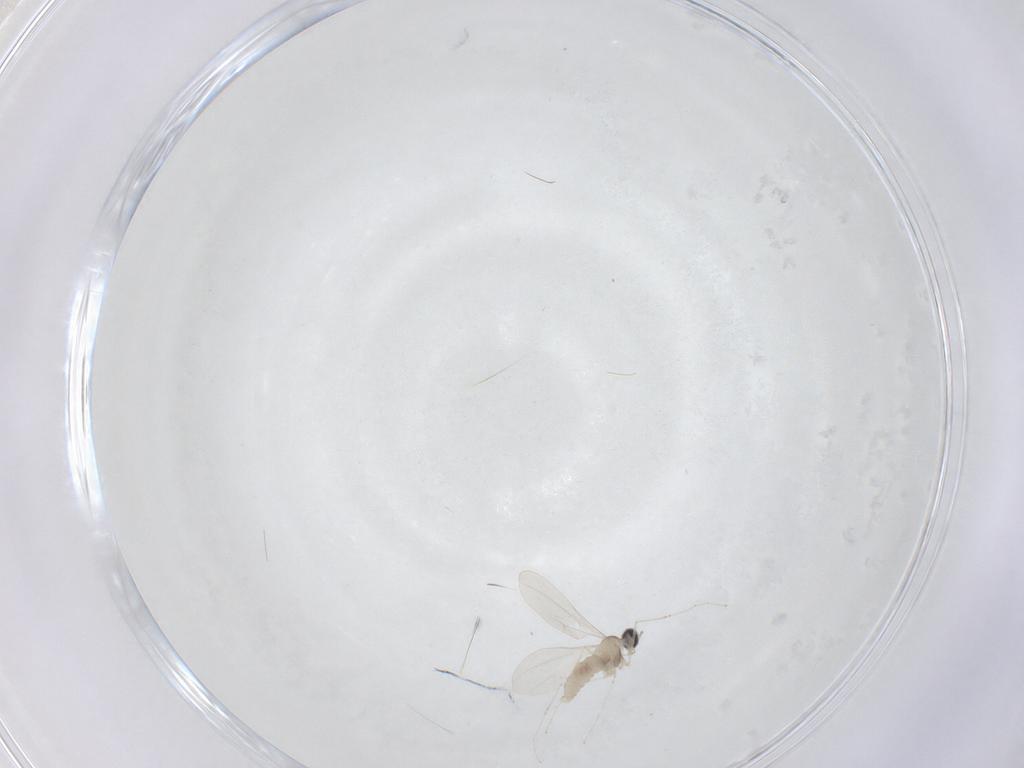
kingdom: Animalia
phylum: Arthropoda
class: Insecta
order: Diptera
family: Cecidomyiidae
